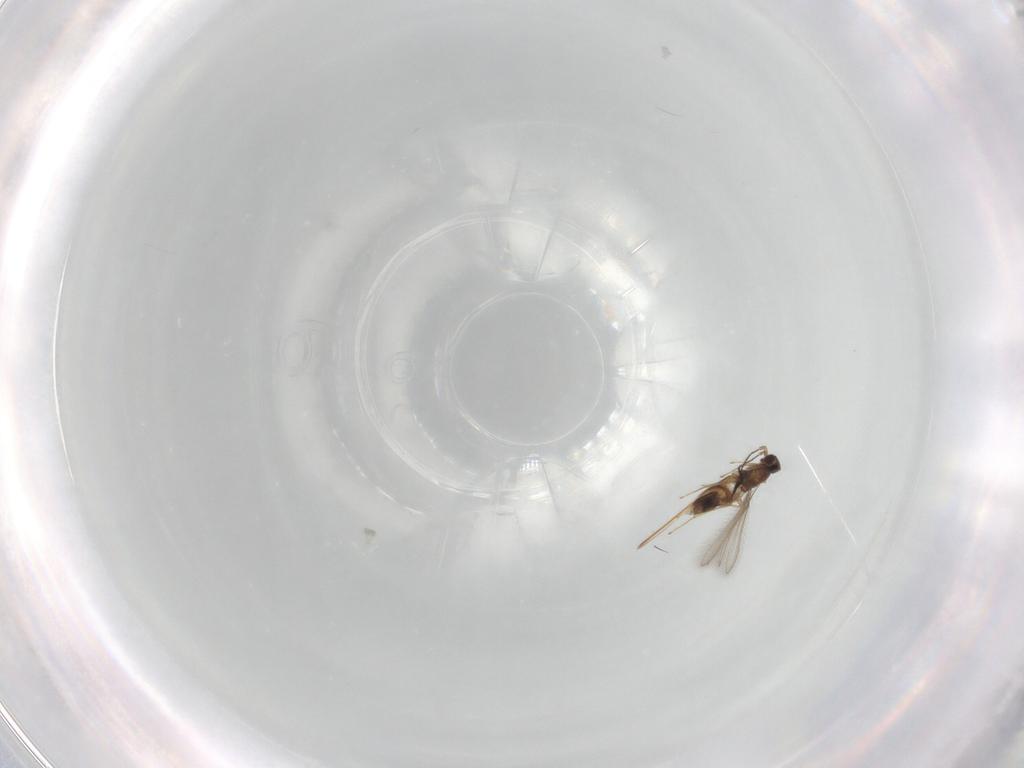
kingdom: Animalia
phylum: Arthropoda
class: Insecta
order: Hymenoptera
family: Mymaridae
